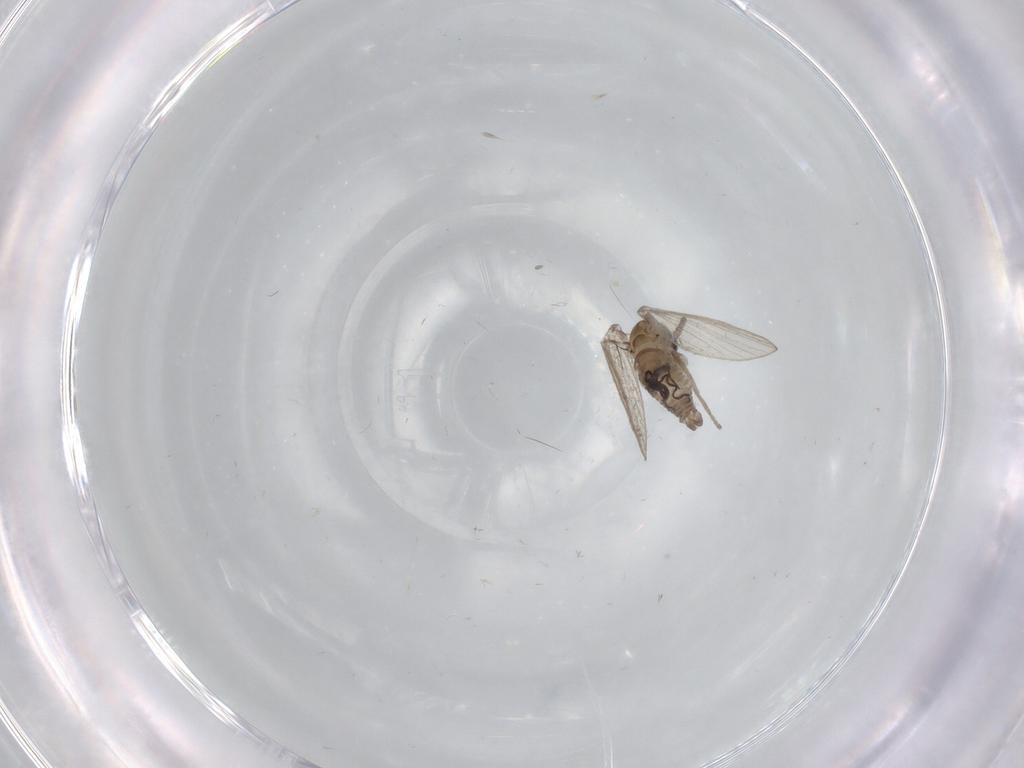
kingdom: Animalia
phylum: Arthropoda
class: Insecta
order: Diptera
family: Psychodidae
